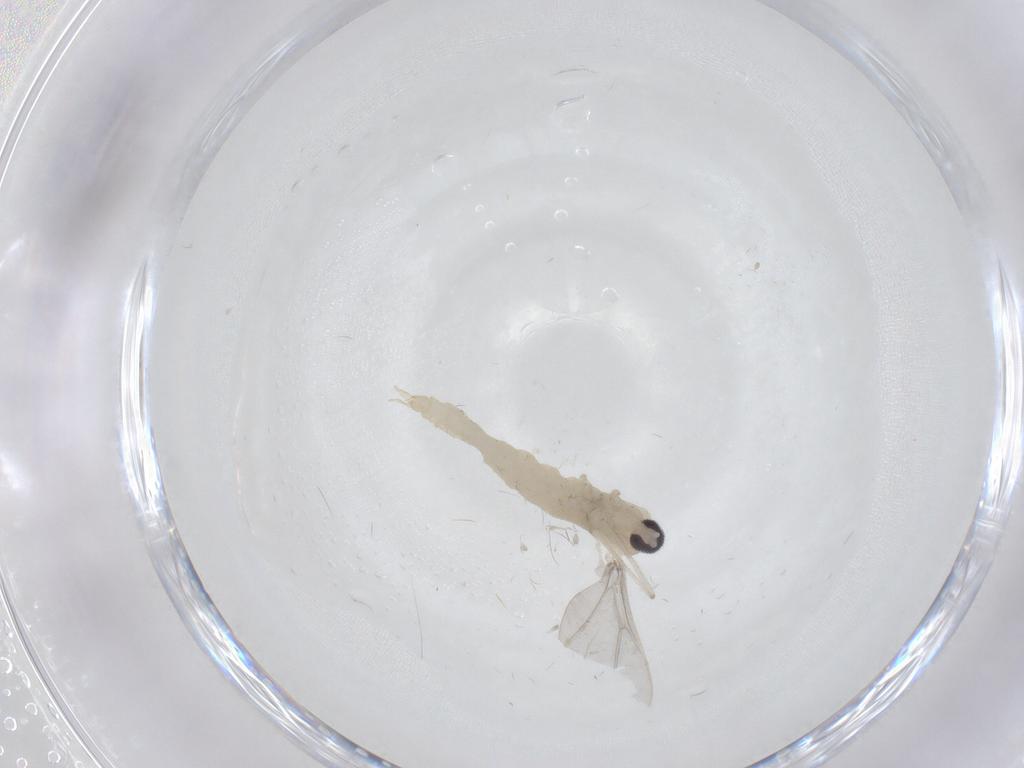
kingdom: Animalia
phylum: Arthropoda
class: Insecta
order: Diptera
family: Cecidomyiidae
